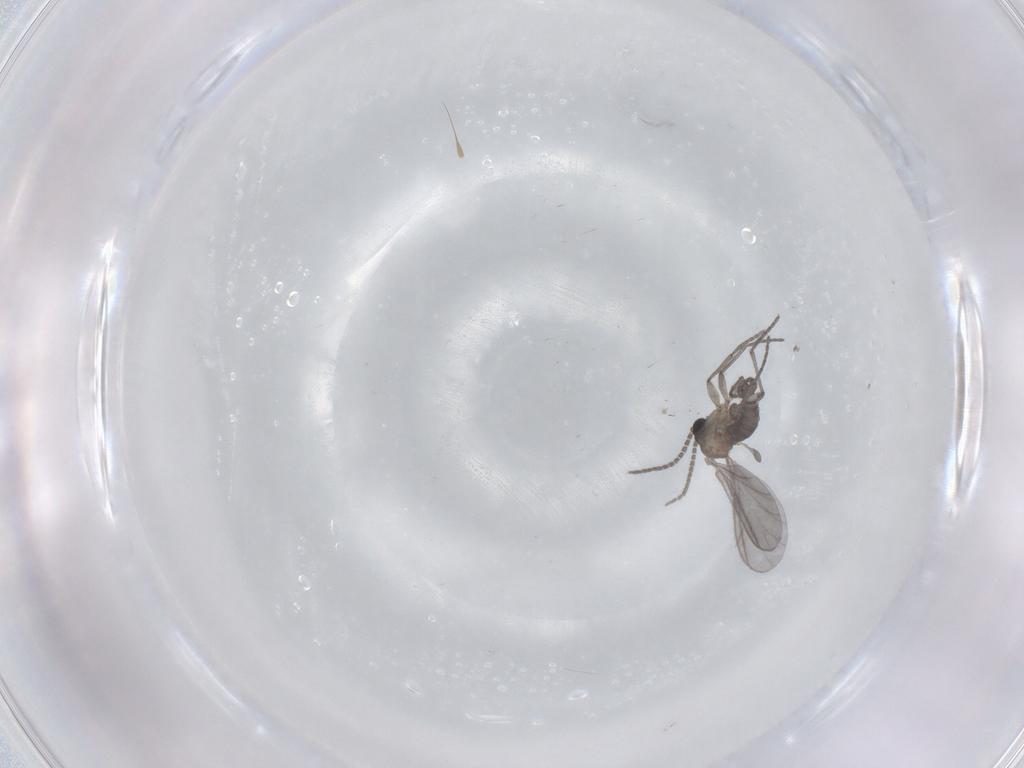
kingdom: Animalia
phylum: Arthropoda
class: Insecta
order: Diptera
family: Sciaridae
